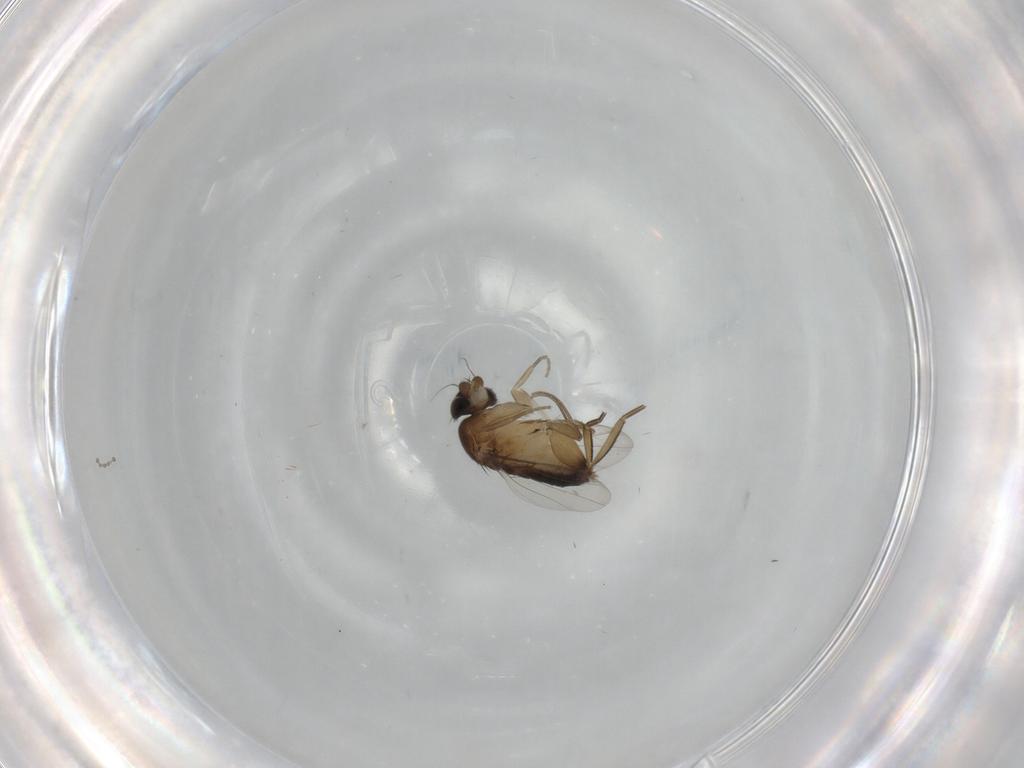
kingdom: Animalia
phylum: Arthropoda
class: Insecta
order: Diptera
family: Phoridae
